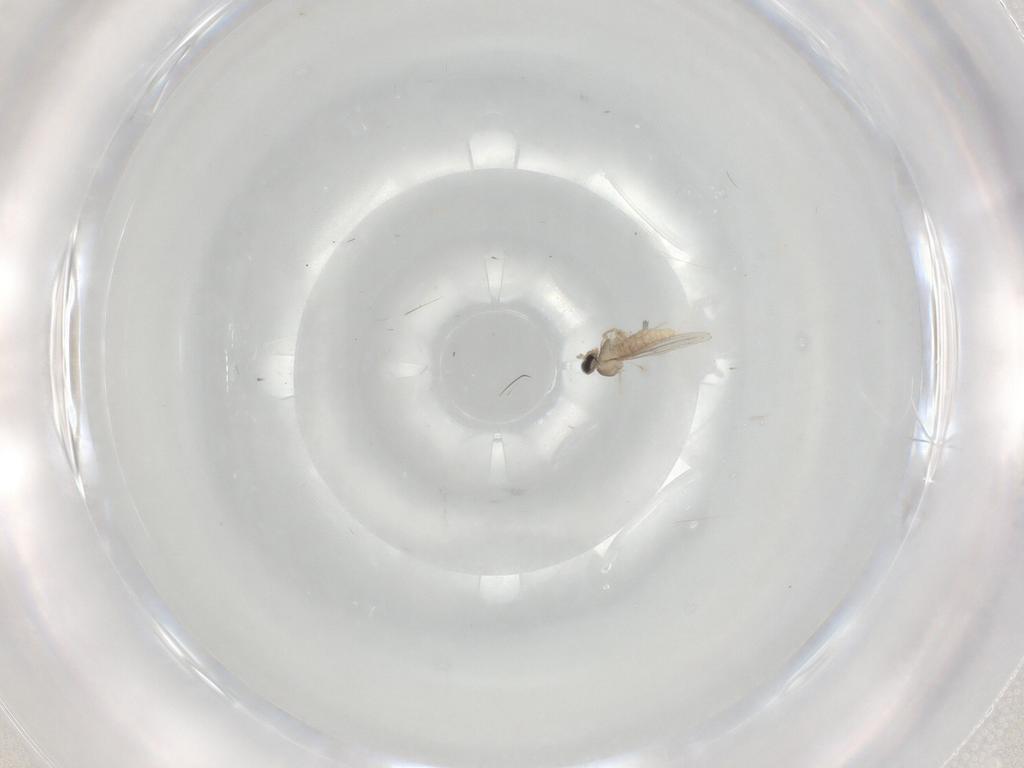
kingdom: Animalia
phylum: Arthropoda
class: Insecta
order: Diptera
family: Cecidomyiidae
